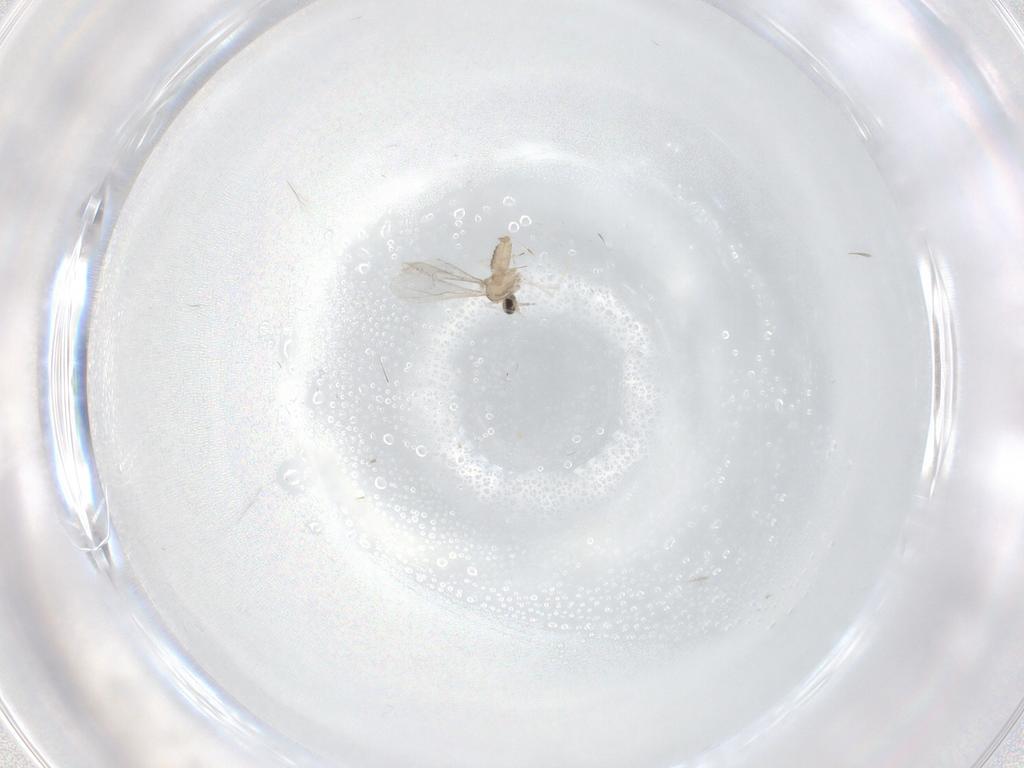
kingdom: Animalia
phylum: Arthropoda
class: Insecta
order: Diptera
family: Cecidomyiidae
